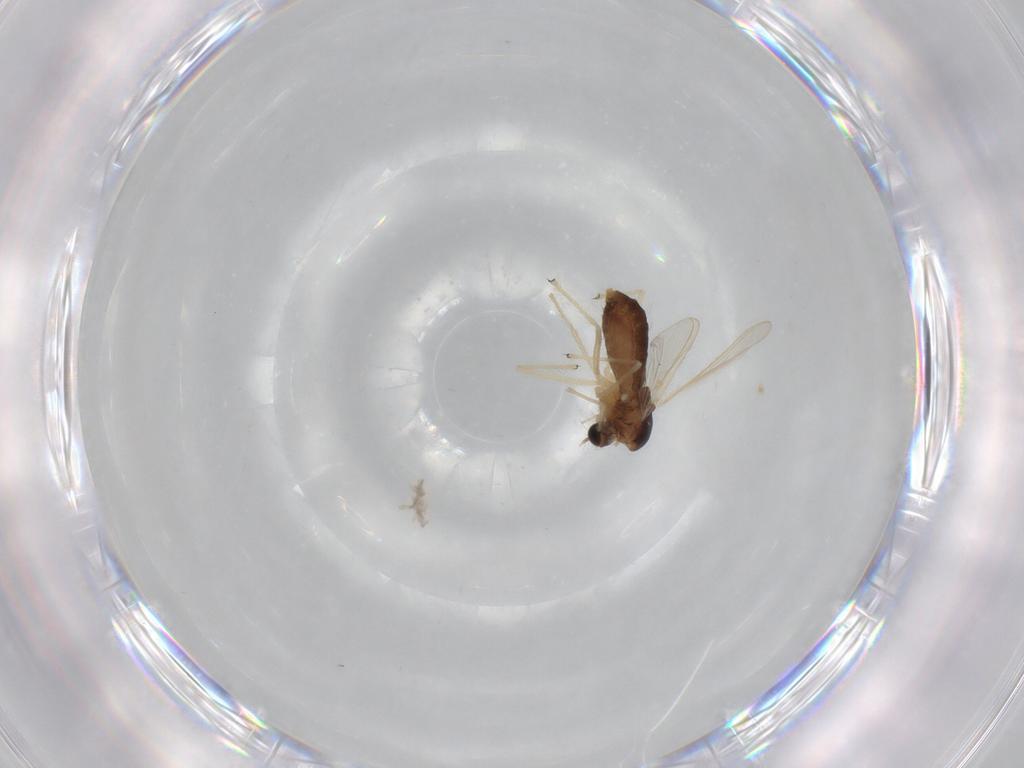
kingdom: Animalia
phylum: Arthropoda
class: Insecta
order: Diptera
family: Chironomidae
